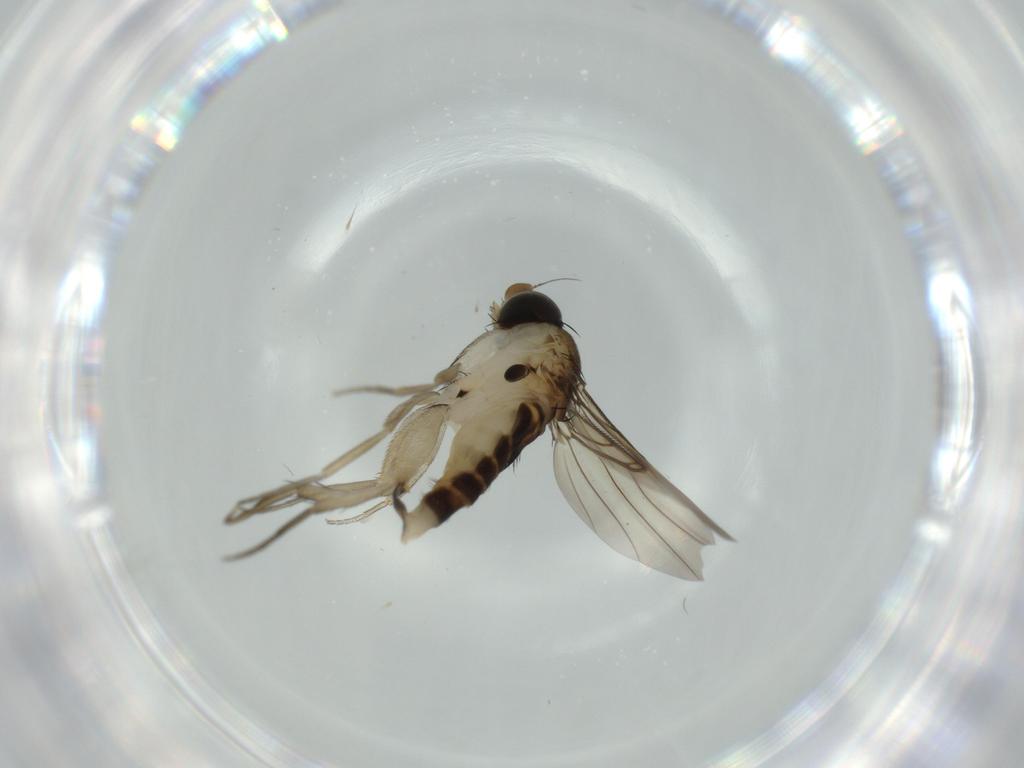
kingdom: Animalia
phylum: Arthropoda
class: Insecta
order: Diptera
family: Phoridae
